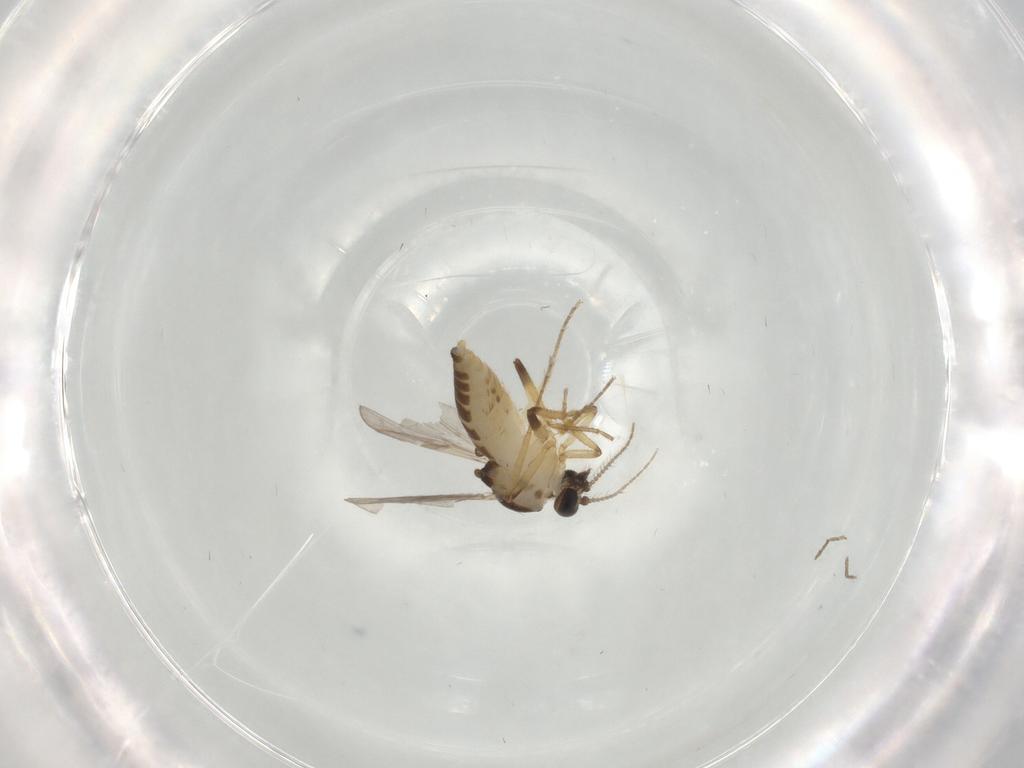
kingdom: Animalia
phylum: Arthropoda
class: Insecta
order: Diptera
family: Ceratopogonidae
